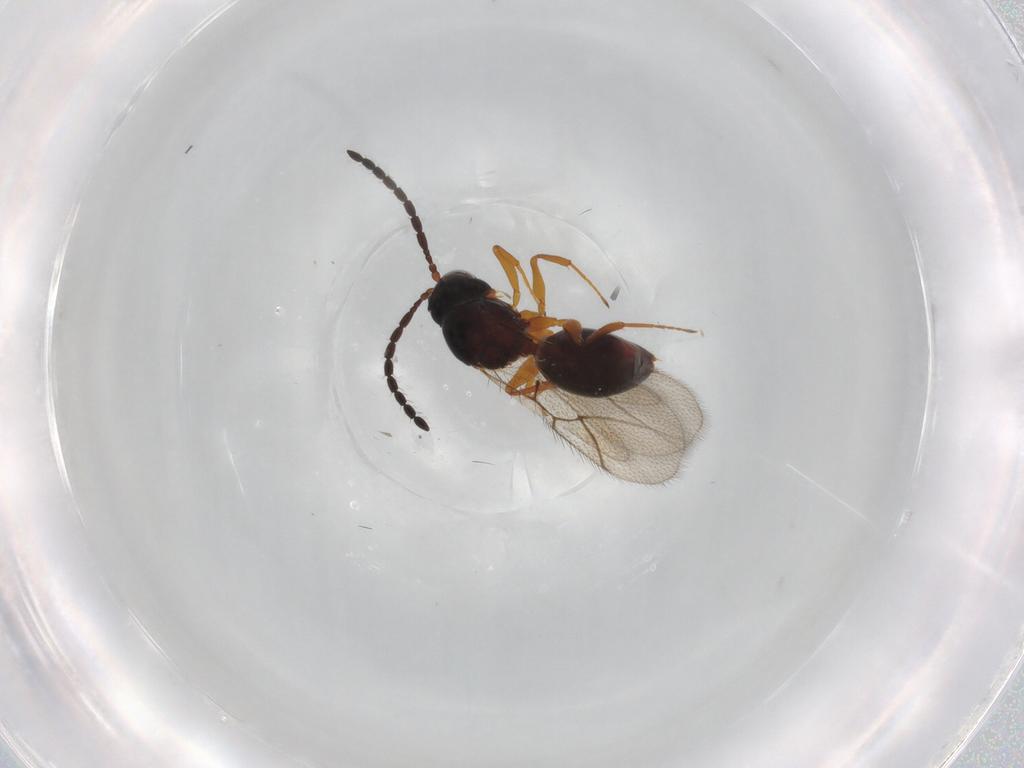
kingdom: Animalia
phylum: Arthropoda
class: Insecta
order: Hymenoptera
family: Figitidae
